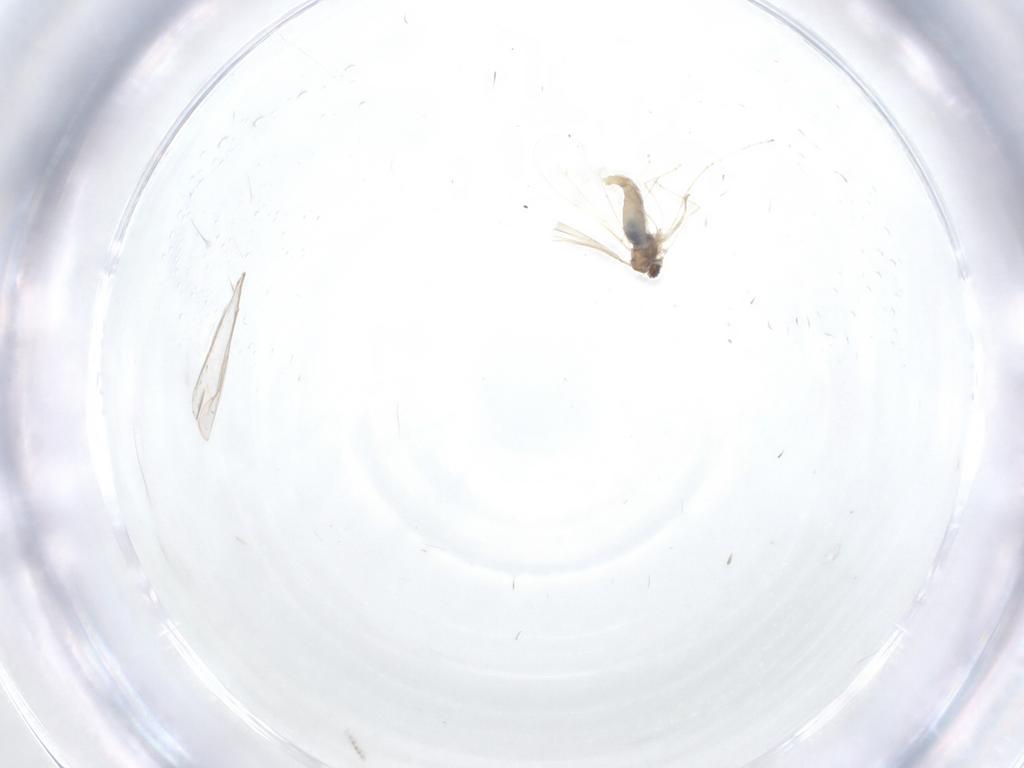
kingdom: Animalia
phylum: Arthropoda
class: Insecta
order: Diptera
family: Cecidomyiidae
